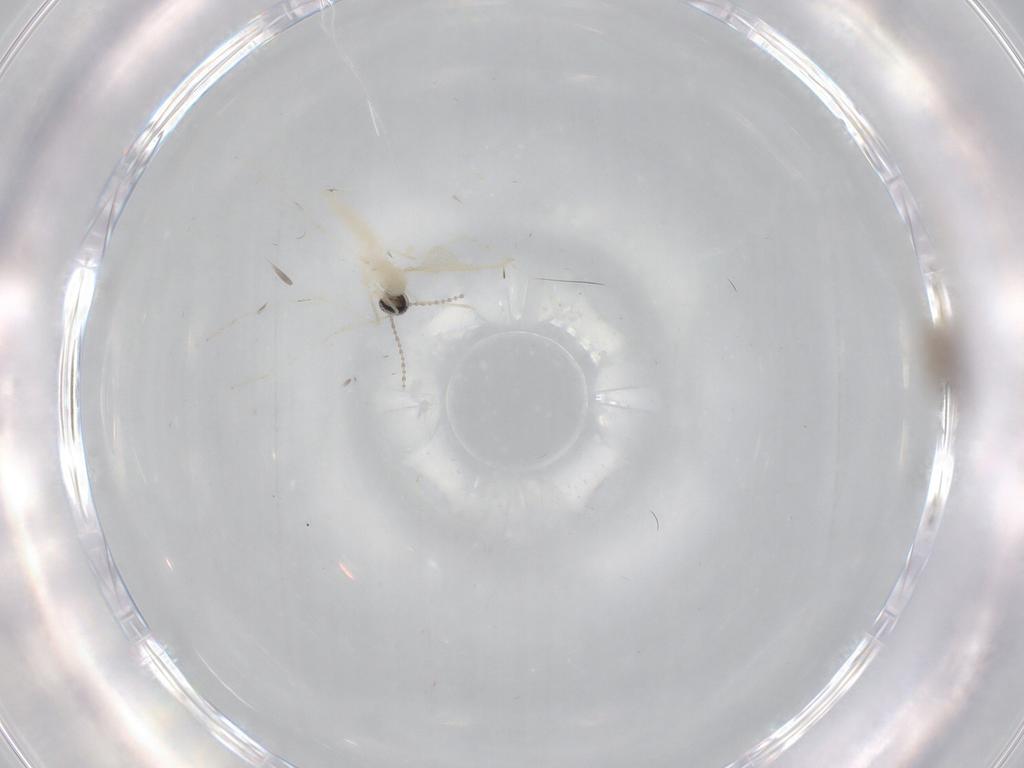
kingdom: Animalia
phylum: Arthropoda
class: Insecta
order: Diptera
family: Cecidomyiidae
